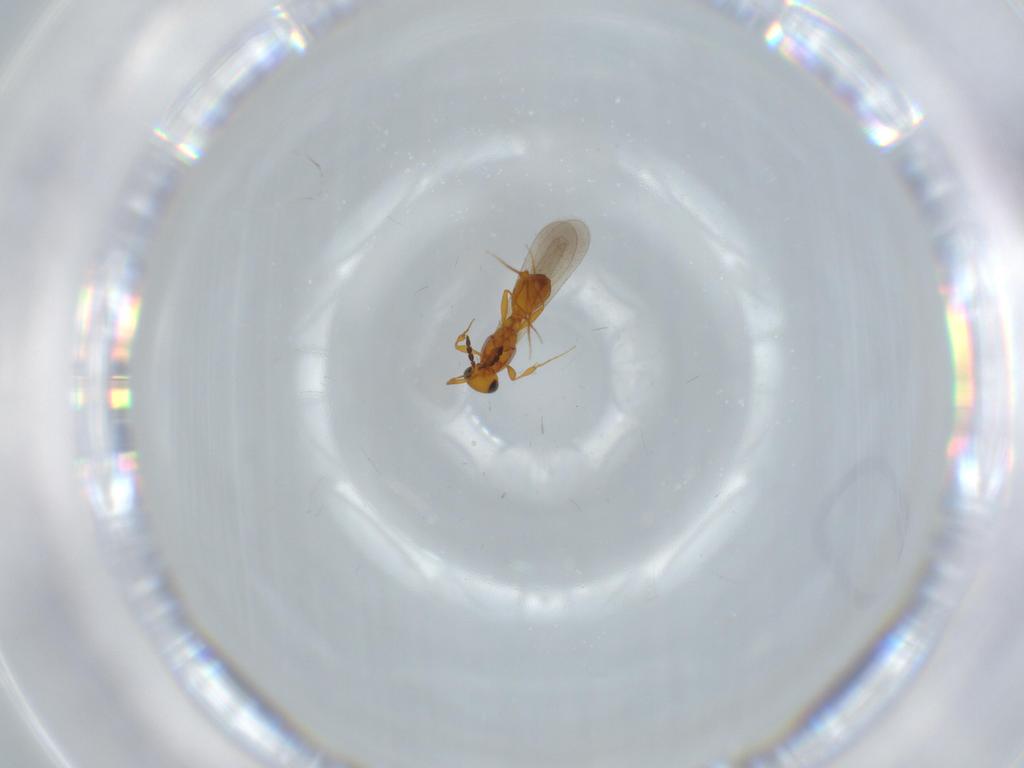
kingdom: Animalia
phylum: Arthropoda
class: Insecta
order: Hymenoptera
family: Platygastridae
